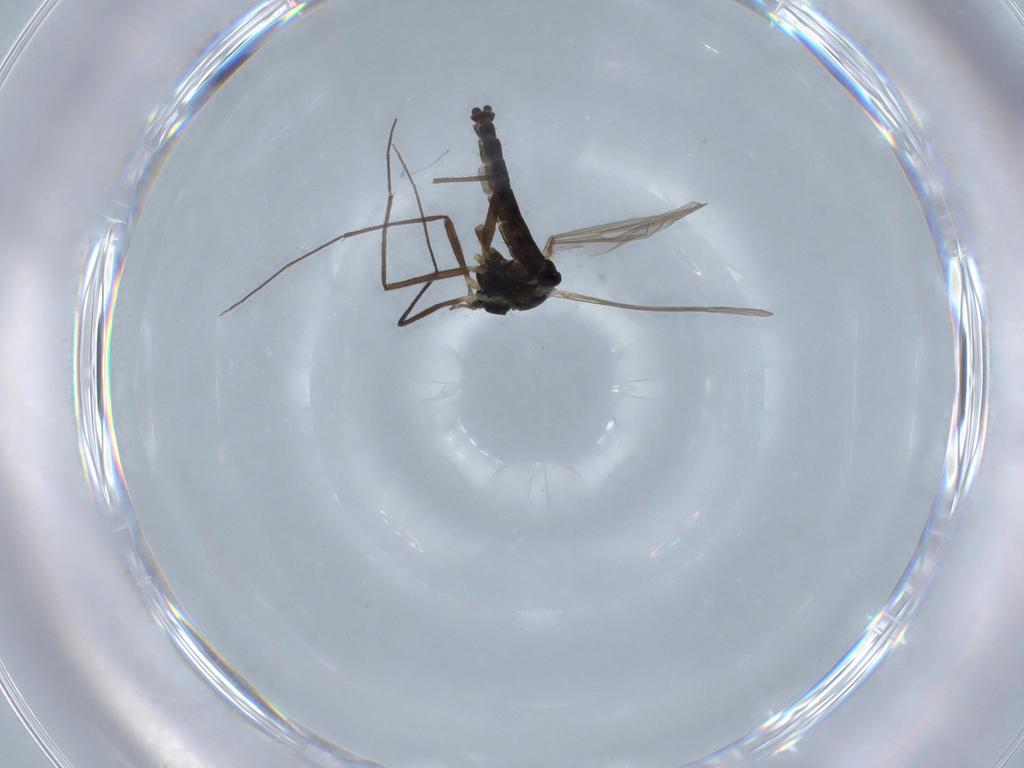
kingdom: Animalia
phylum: Arthropoda
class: Insecta
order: Diptera
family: Chironomidae
